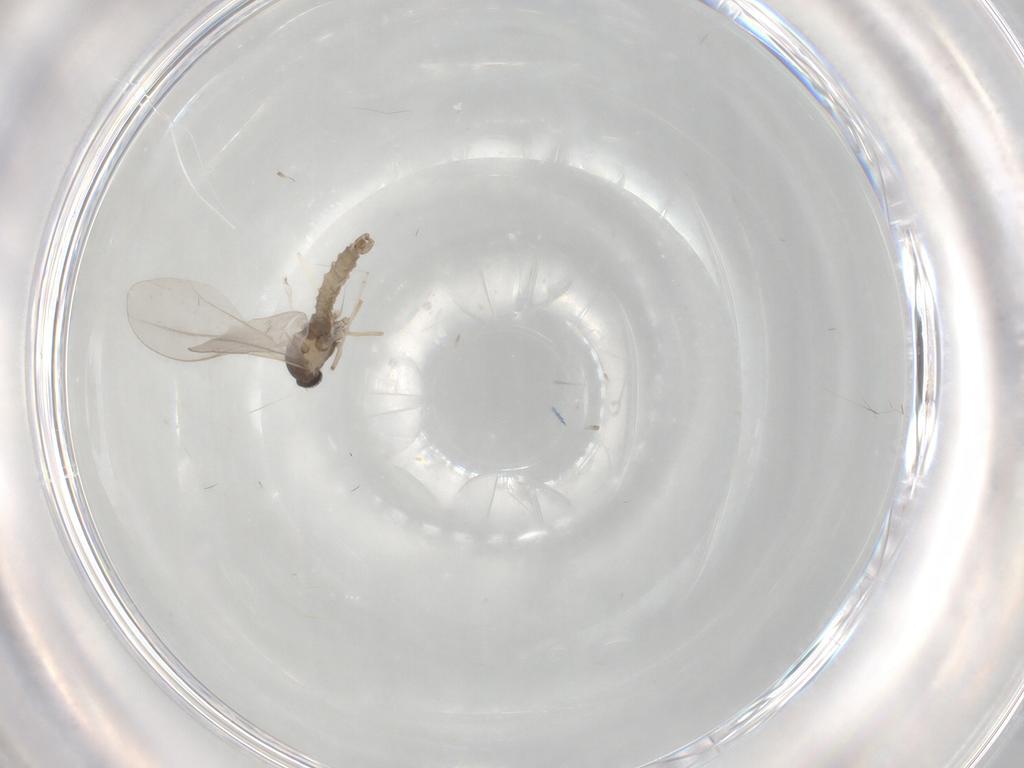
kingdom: Animalia
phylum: Arthropoda
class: Insecta
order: Diptera
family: Cecidomyiidae
